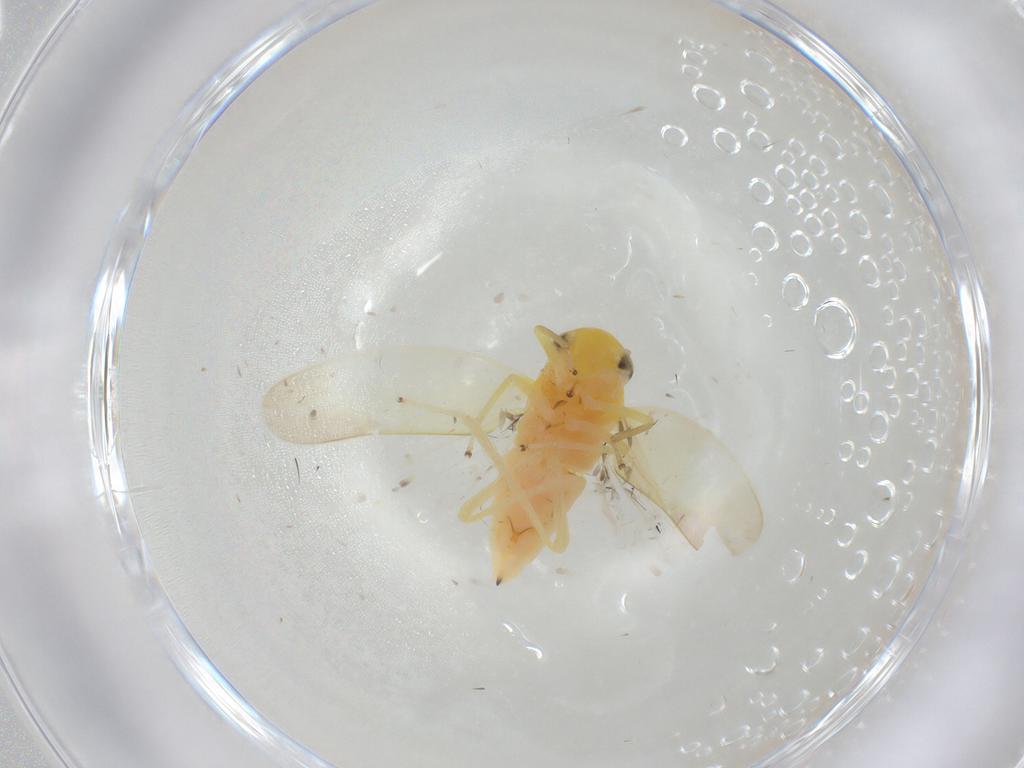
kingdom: Animalia
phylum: Arthropoda
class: Insecta
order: Hemiptera
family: Cicadellidae
